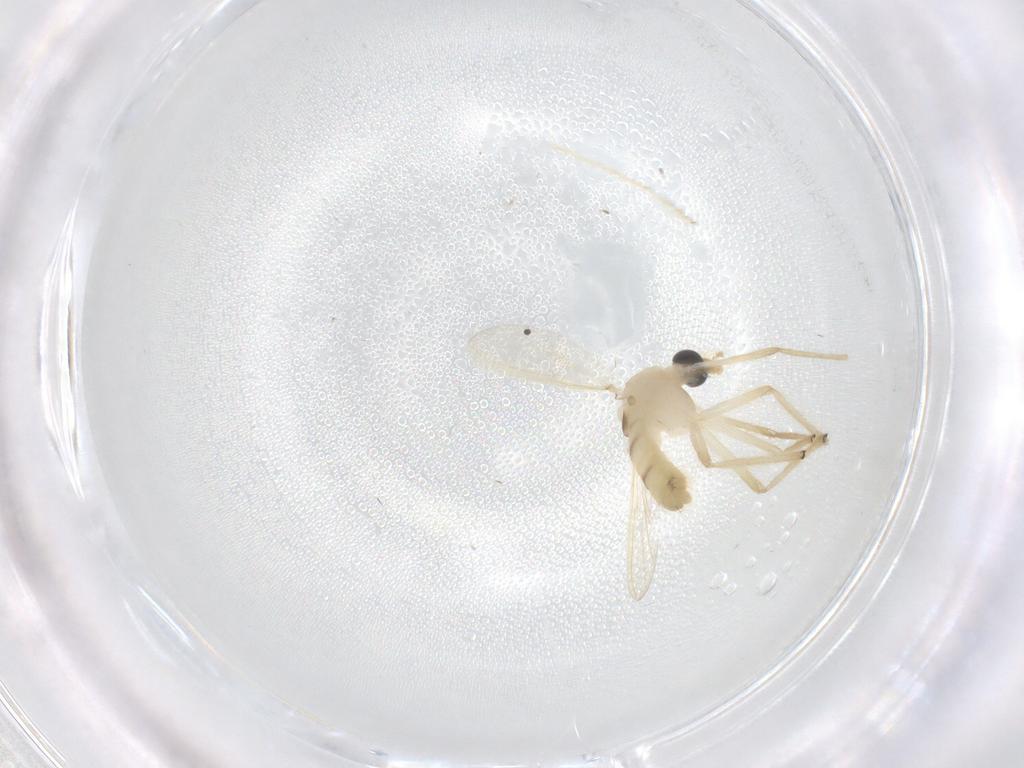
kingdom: Animalia
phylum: Arthropoda
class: Insecta
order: Diptera
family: Chironomidae
